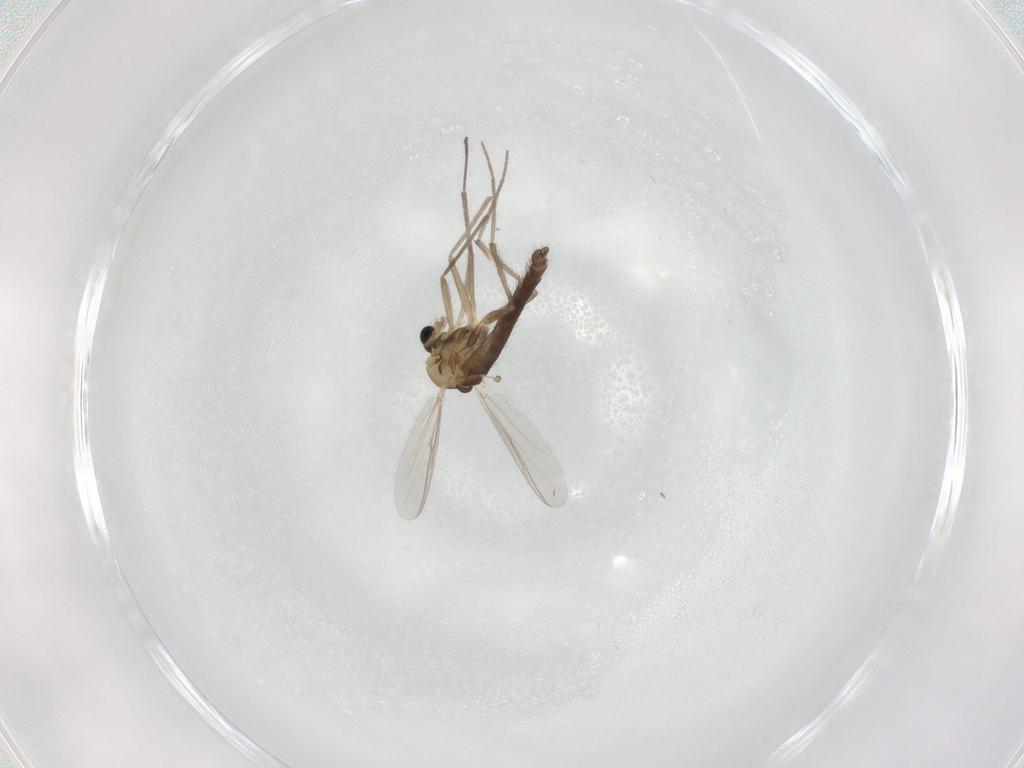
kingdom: Animalia
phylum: Arthropoda
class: Insecta
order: Diptera
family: Chironomidae
